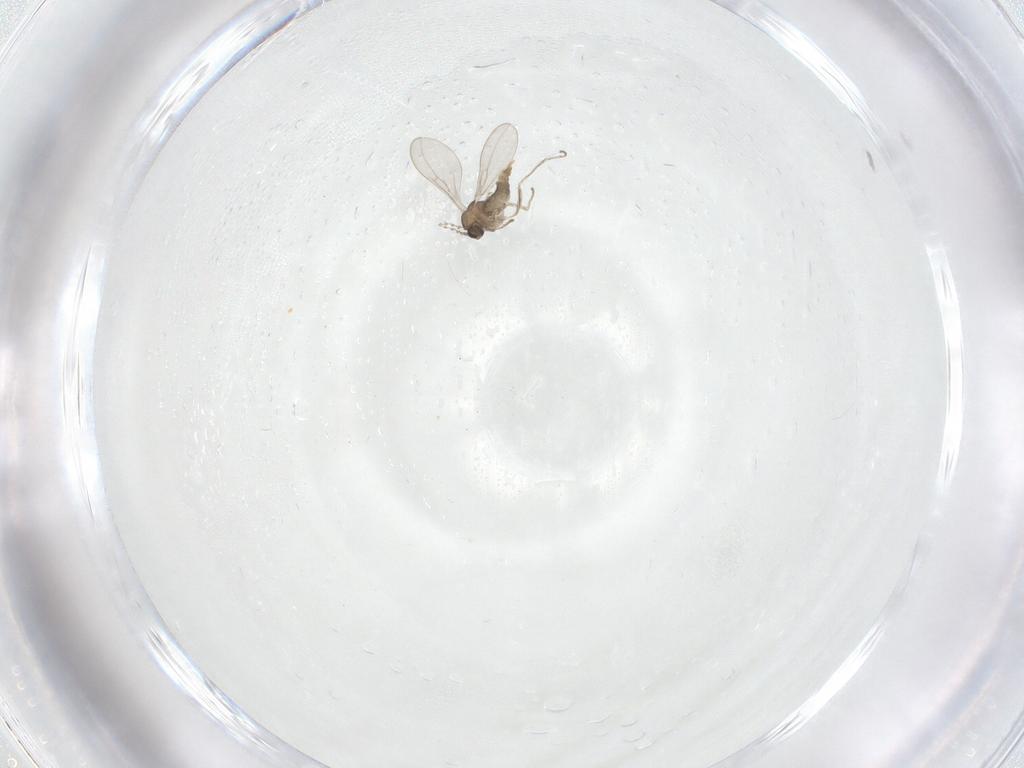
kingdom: Animalia
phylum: Arthropoda
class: Insecta
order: Diptera
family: Cecidomyiidae
